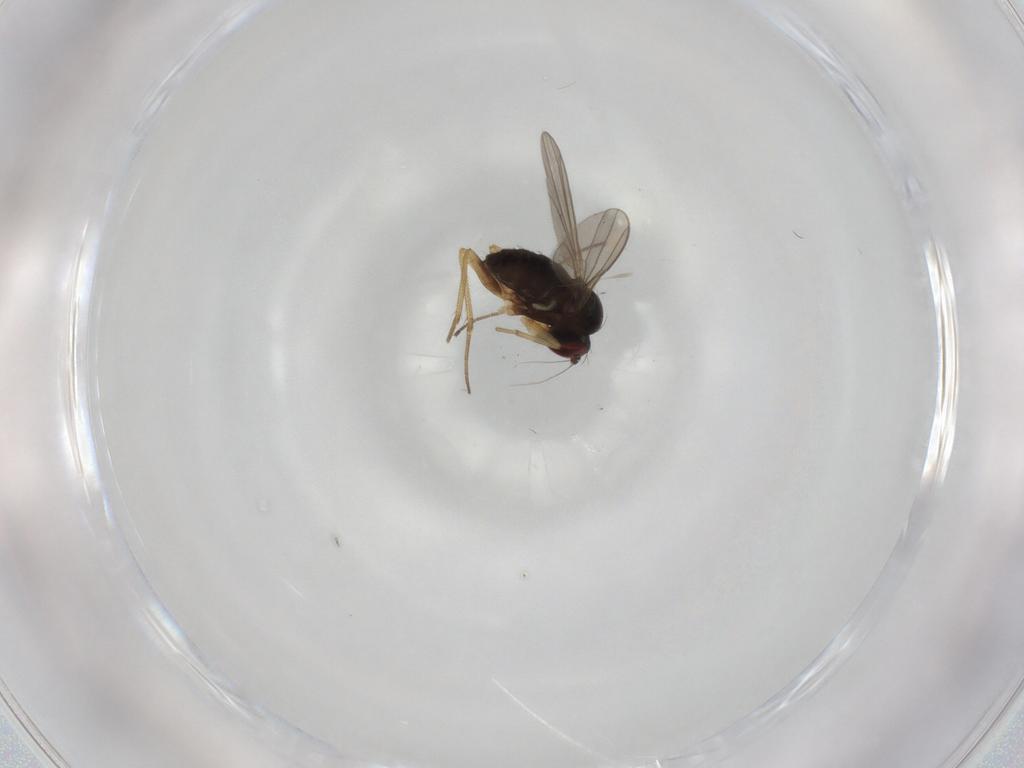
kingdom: Animalia
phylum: Arthropoda
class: Insecta
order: Diptera
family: Dolichopodidae
